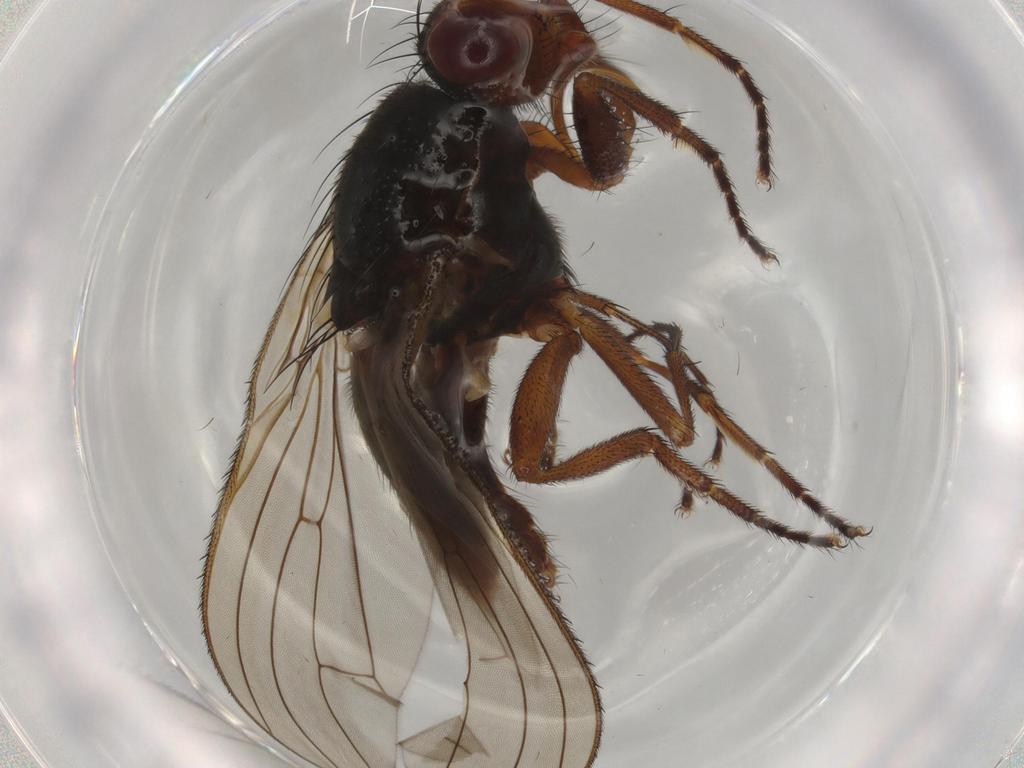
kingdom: Animalia
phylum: Arthropoda
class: Insecta
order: Diptera
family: Heleomyzidae
